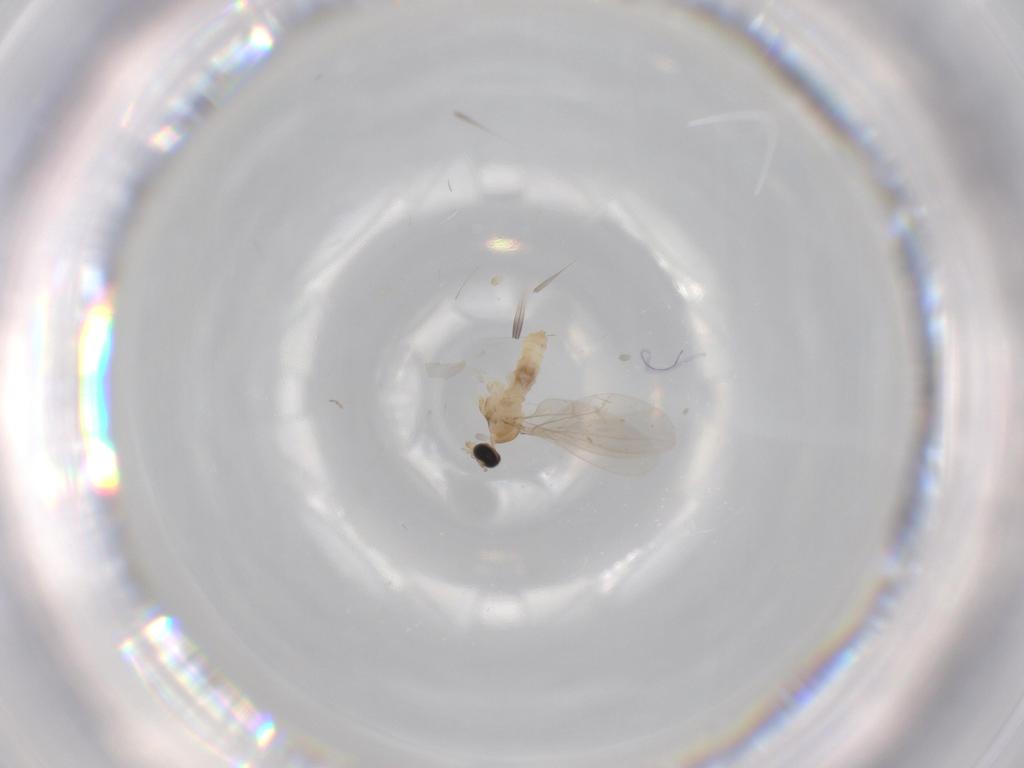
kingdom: Animalia
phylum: Arthropoda
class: Insecta
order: Diptera
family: Cecidomyiidae
